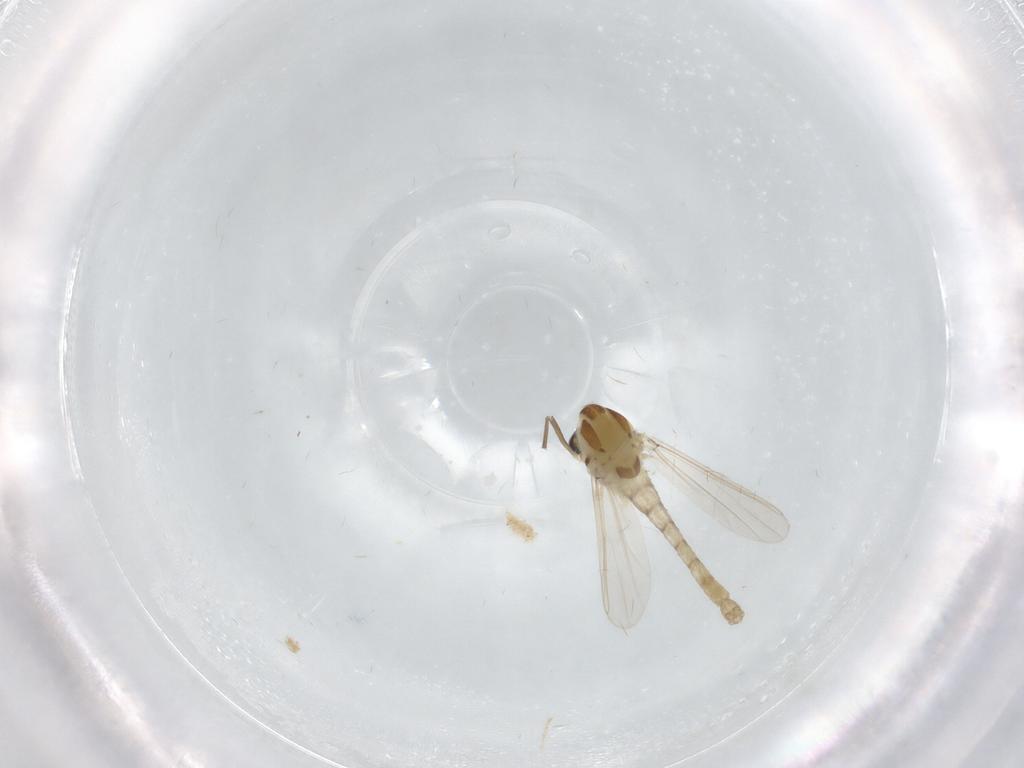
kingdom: Animalia
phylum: Arthropoda
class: Insecta
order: Diptera
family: Chironomidae
